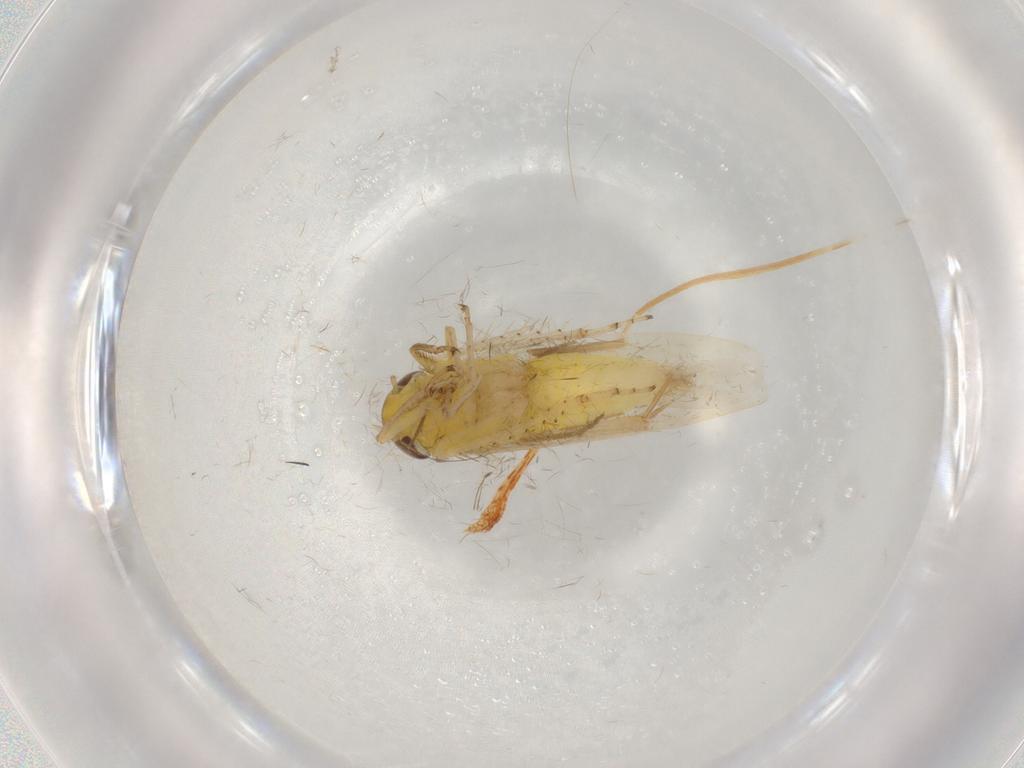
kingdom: Animalia
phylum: Arthropoda
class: Insecta
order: Hemiptera
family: Cicadellidae
